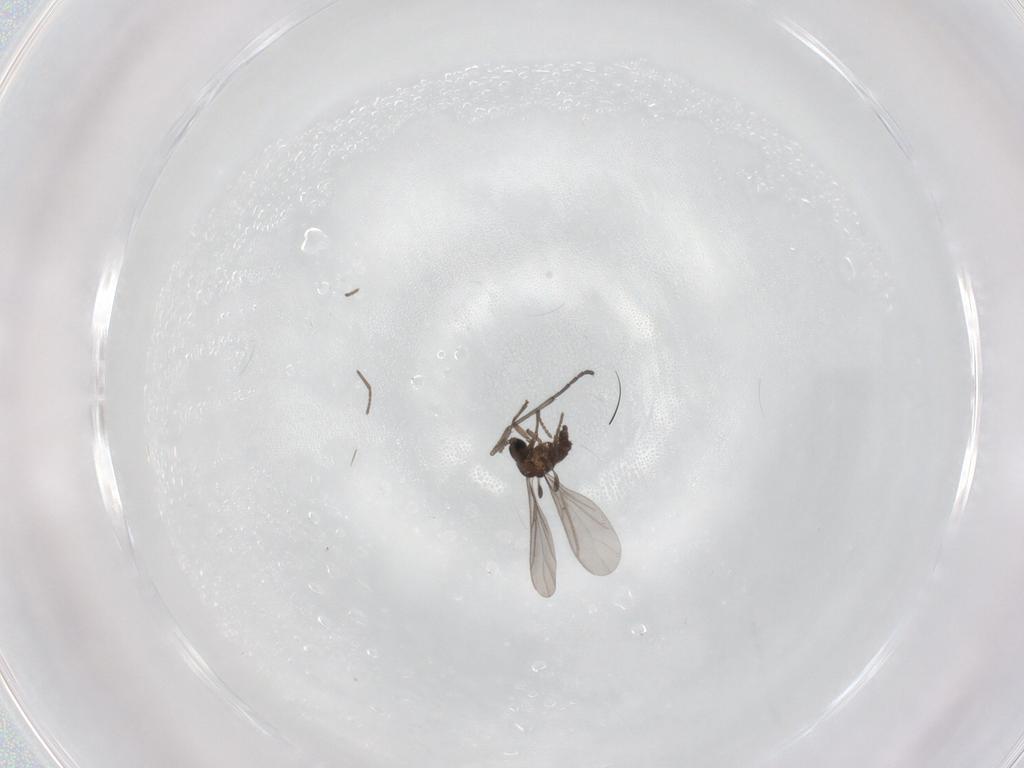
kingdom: Animalia
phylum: Arthropoda
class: Insecta
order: Diptera
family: Sciaridae
